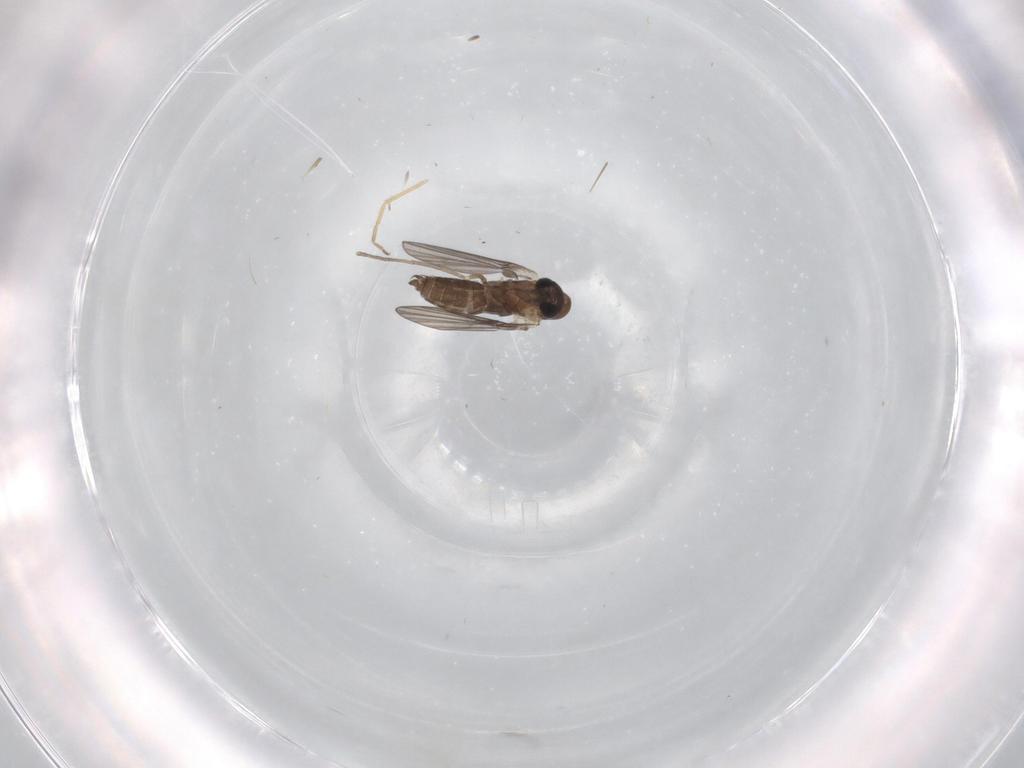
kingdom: Animalia
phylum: Arthropoda
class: Insecta
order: Diptera
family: Chironomidae
